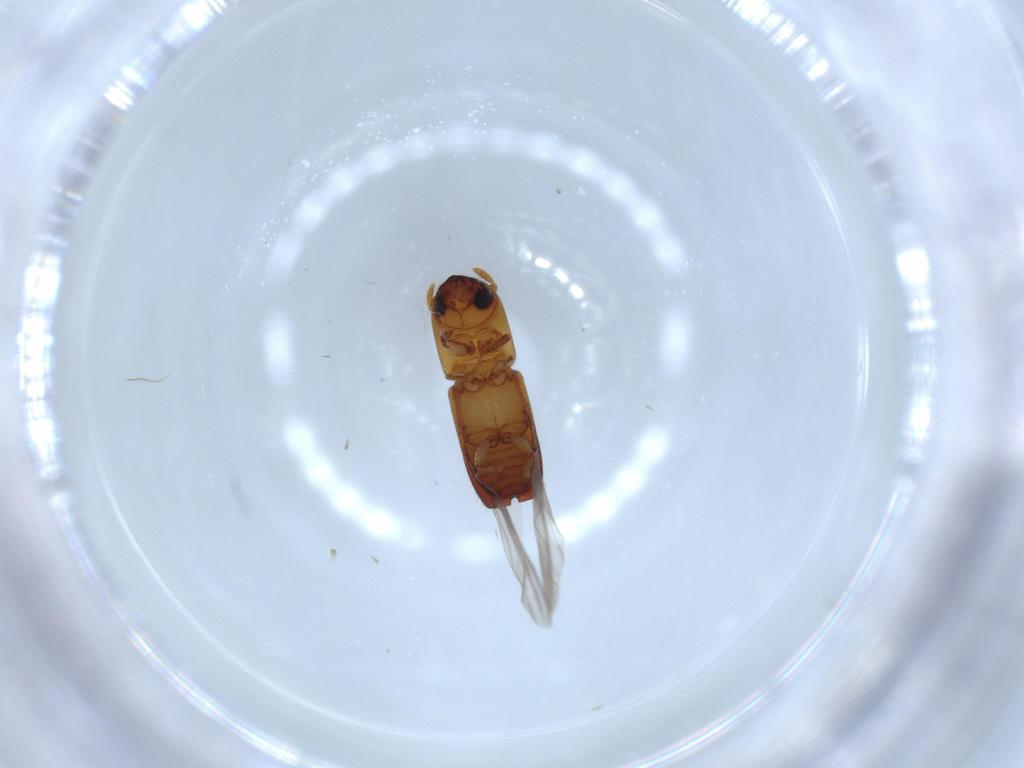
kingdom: Animalia
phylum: Arthropoda
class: Insecta
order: Coleoptera
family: Curculionidae
